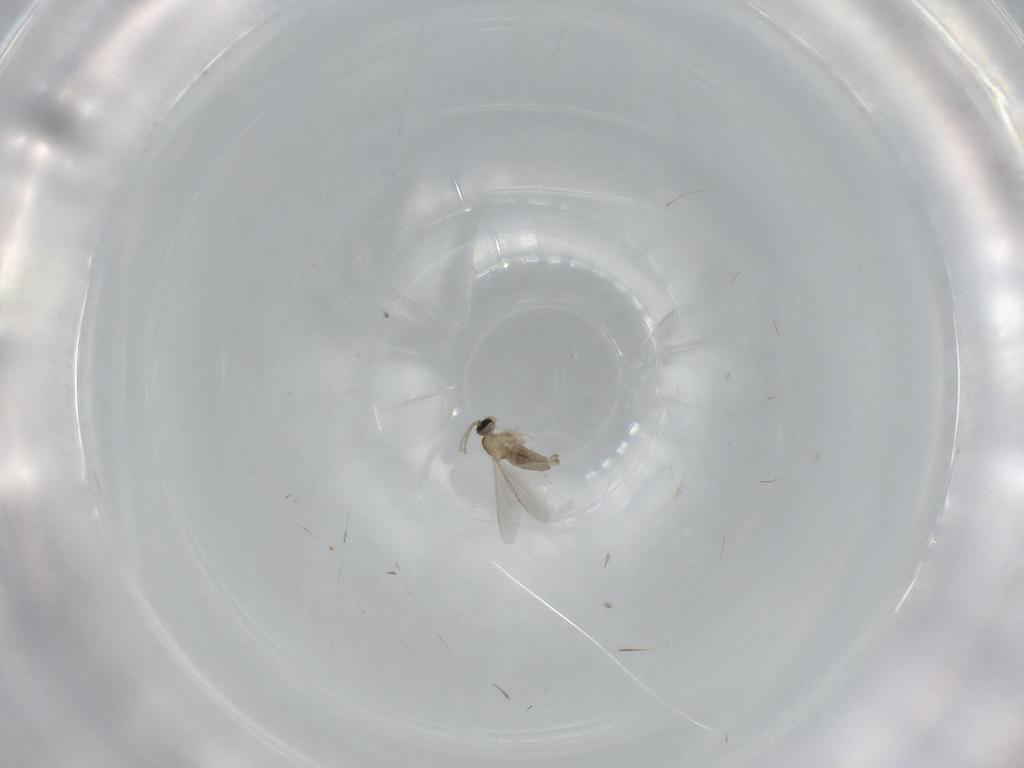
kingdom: Animalia
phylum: Arthropoda
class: Insecta
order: Diptera
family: Cecidomyiidae
